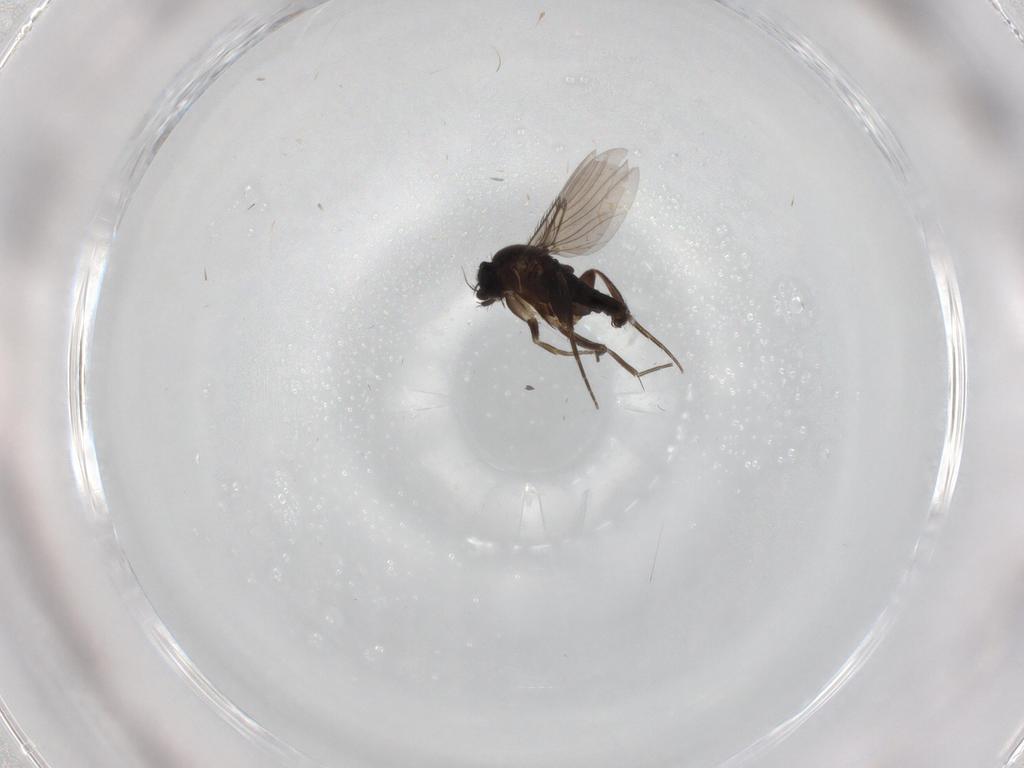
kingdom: Animalia
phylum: Arthropoda
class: Insecta
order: Diptera
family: Phoridae
